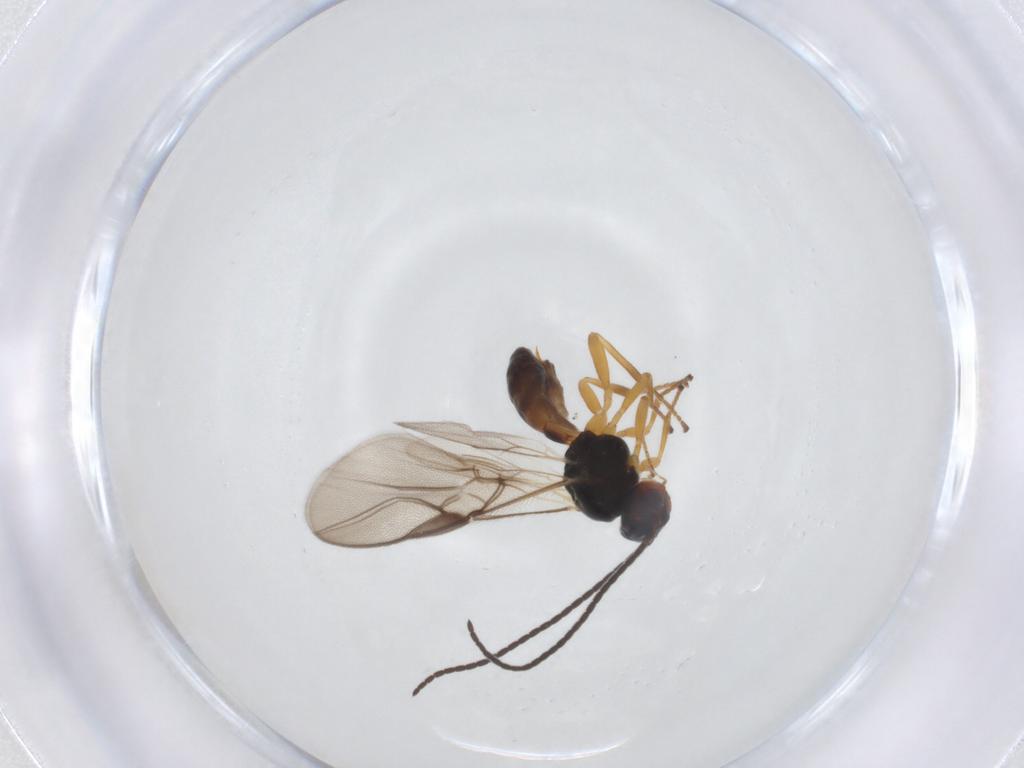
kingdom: Animalia
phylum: Arthropoda
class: Insecta
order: Hymenoptera
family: Braconidae
